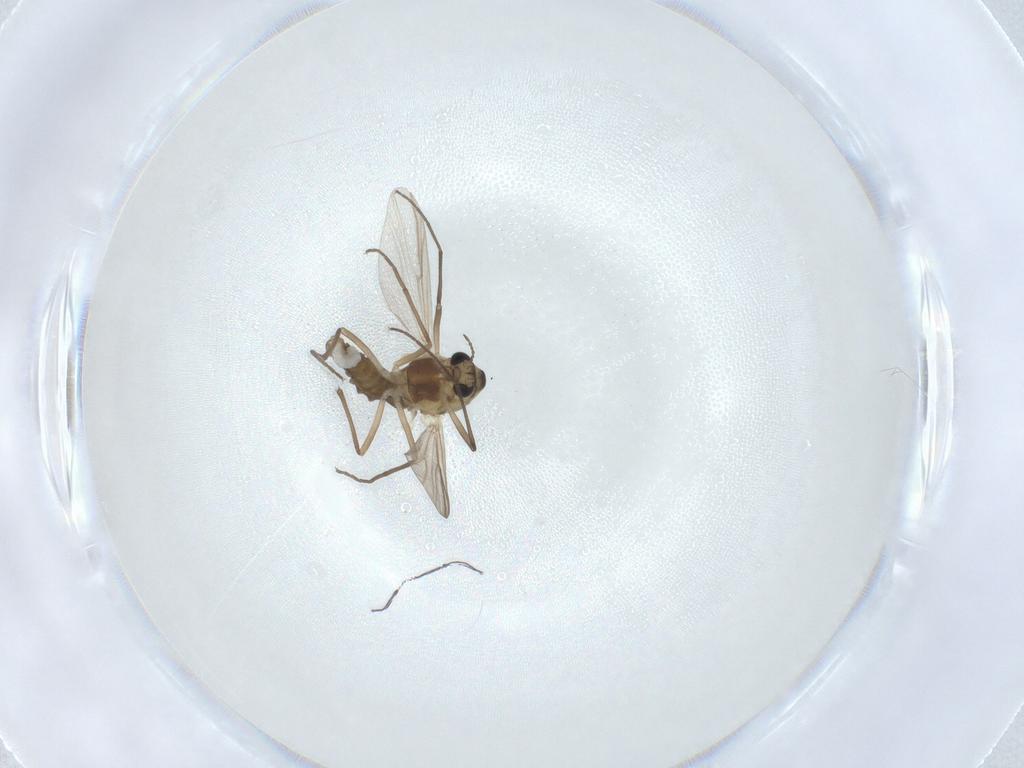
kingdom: Animalia
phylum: Arthropoda
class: Insecta
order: Diptera
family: Chironomidae
